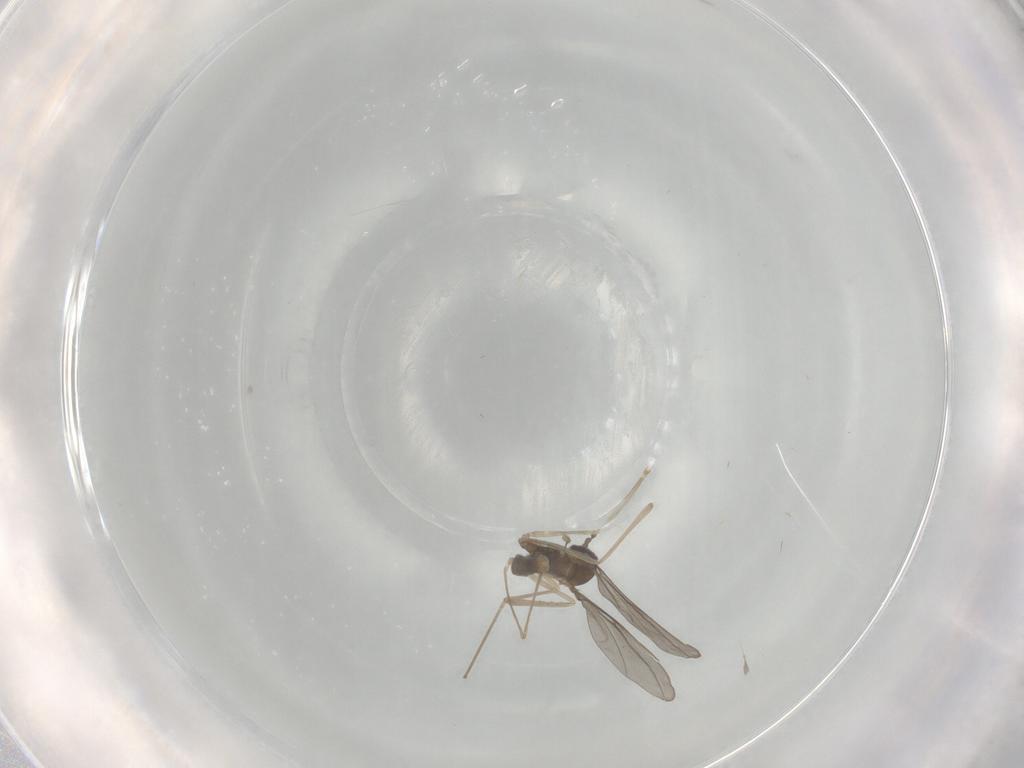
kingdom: Animalia
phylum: Arthropoda
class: Insecta
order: Diptera
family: Cecidomyiidae
